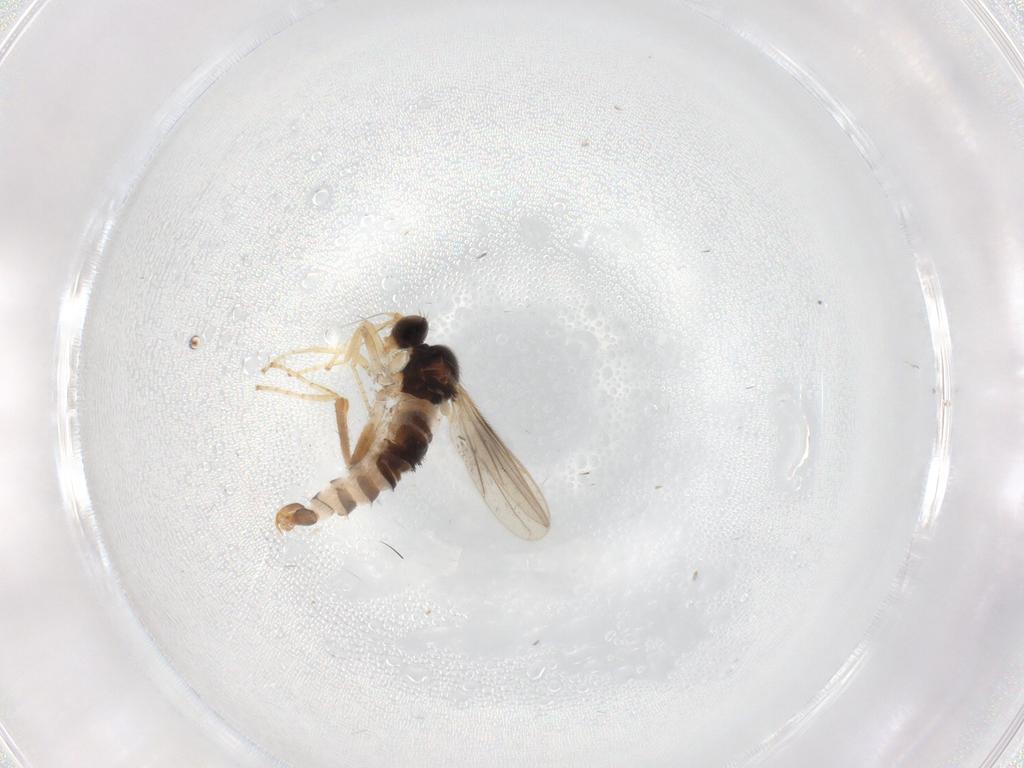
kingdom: Animalia
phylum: Arthropoda
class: Insecta
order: Diptera
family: Hybotidae
